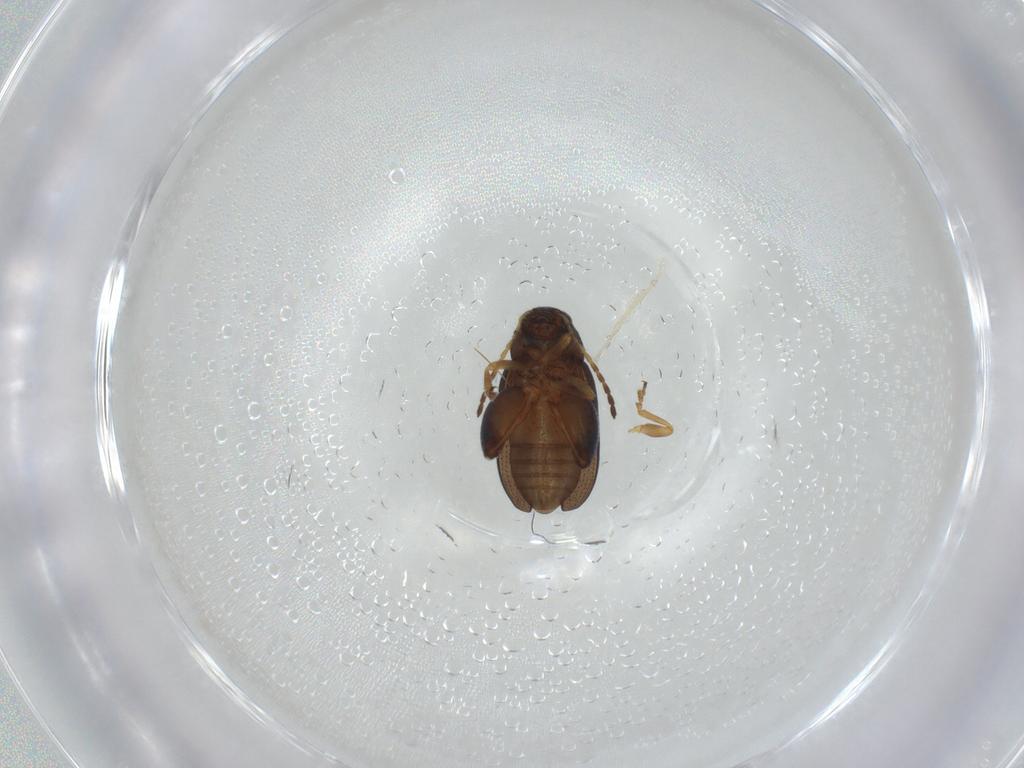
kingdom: Animalia
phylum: Arthropoda
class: Insecta
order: Coleoptera
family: Chrysomelidae
